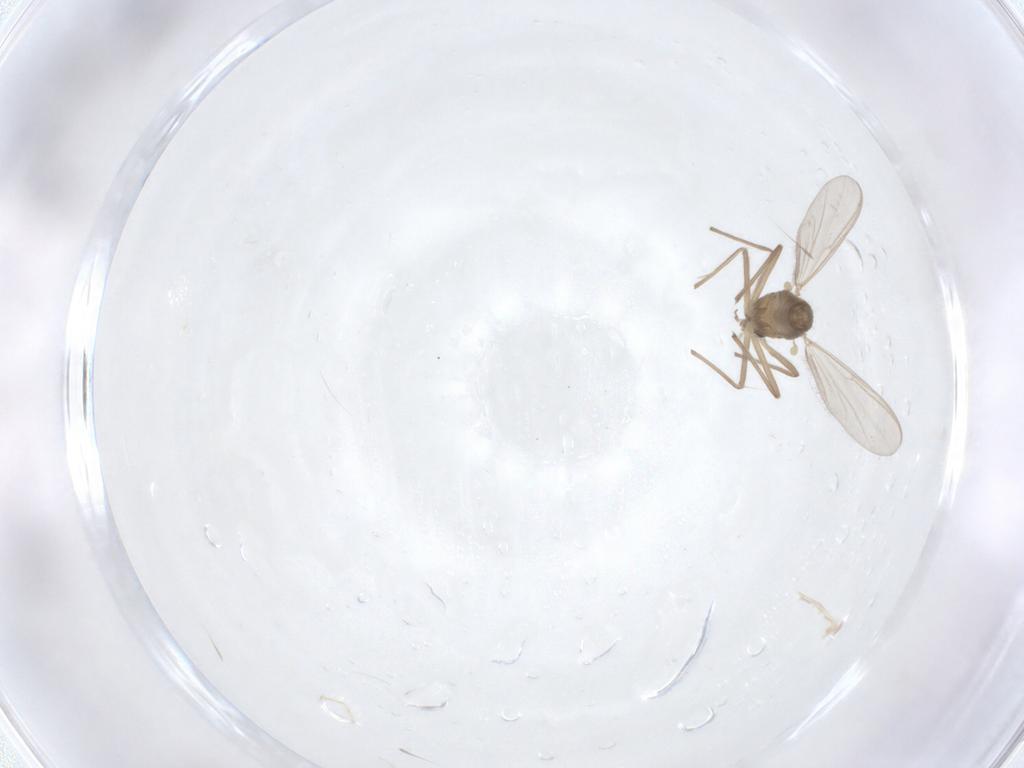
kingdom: Animalia
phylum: Arthropoda
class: Insecta
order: Diptera
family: Chironomidae
